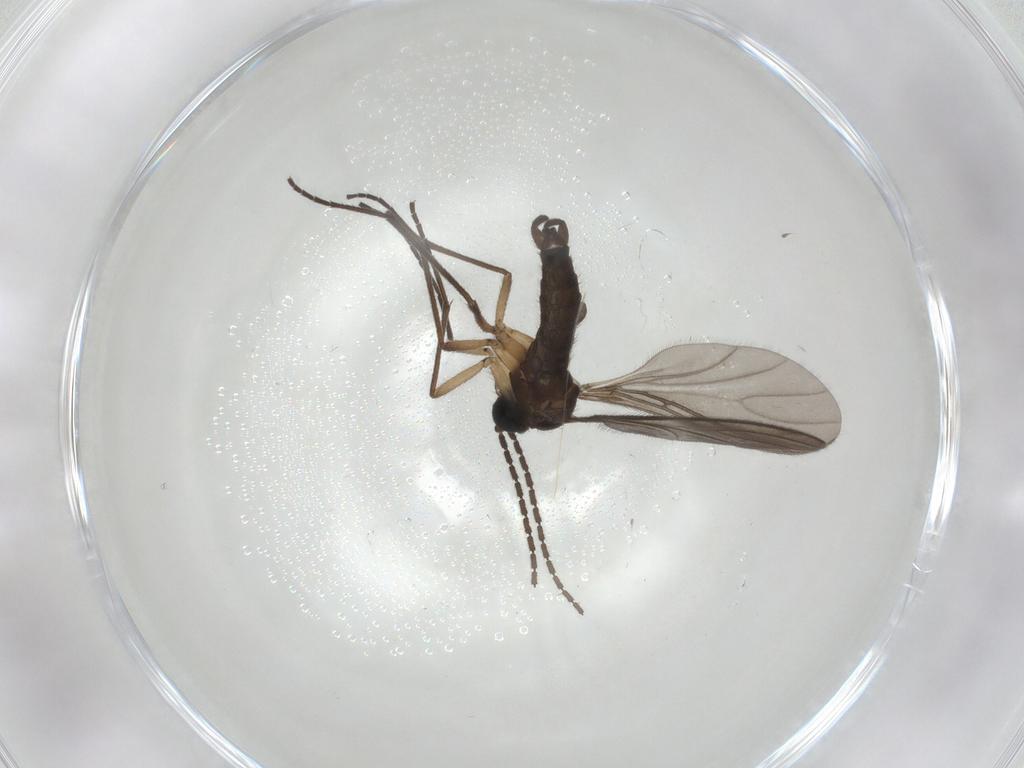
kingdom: Animalia
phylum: Arthropoda
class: Insecta
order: Diptera
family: Sciaridae
